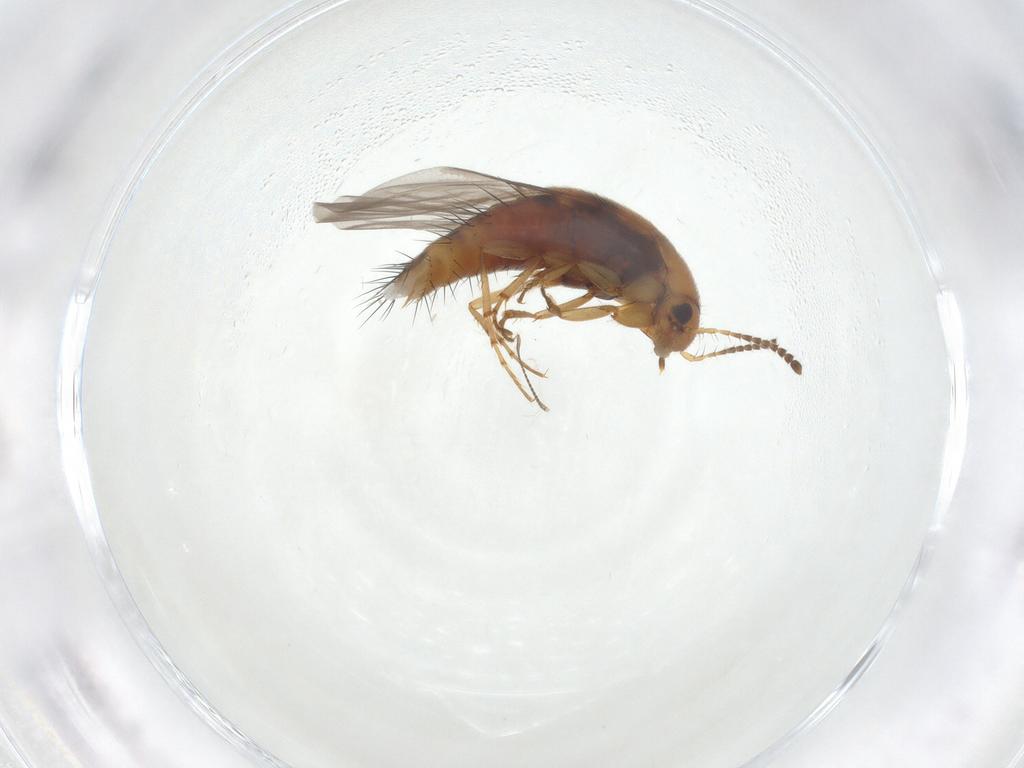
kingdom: Animalia
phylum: Arthropoda
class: Insecta
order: Coleoptera
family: Staphylinidae
